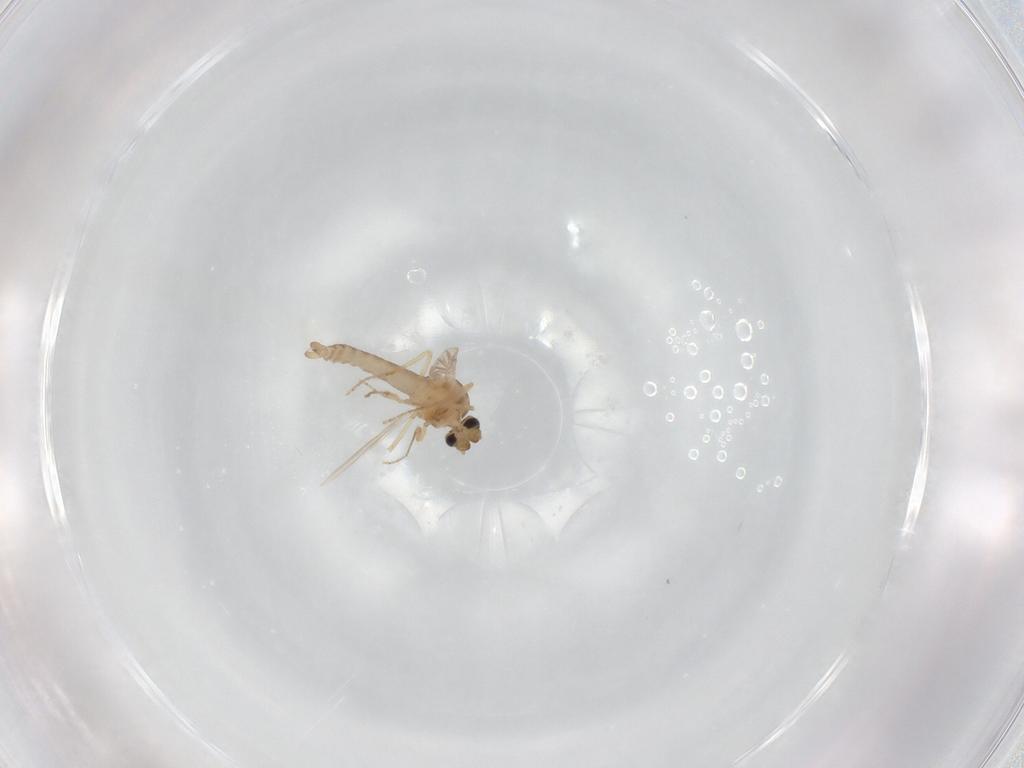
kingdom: Animalia
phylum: Arthropoda
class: Insecta
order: Diptera
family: Ceratopogonidae
